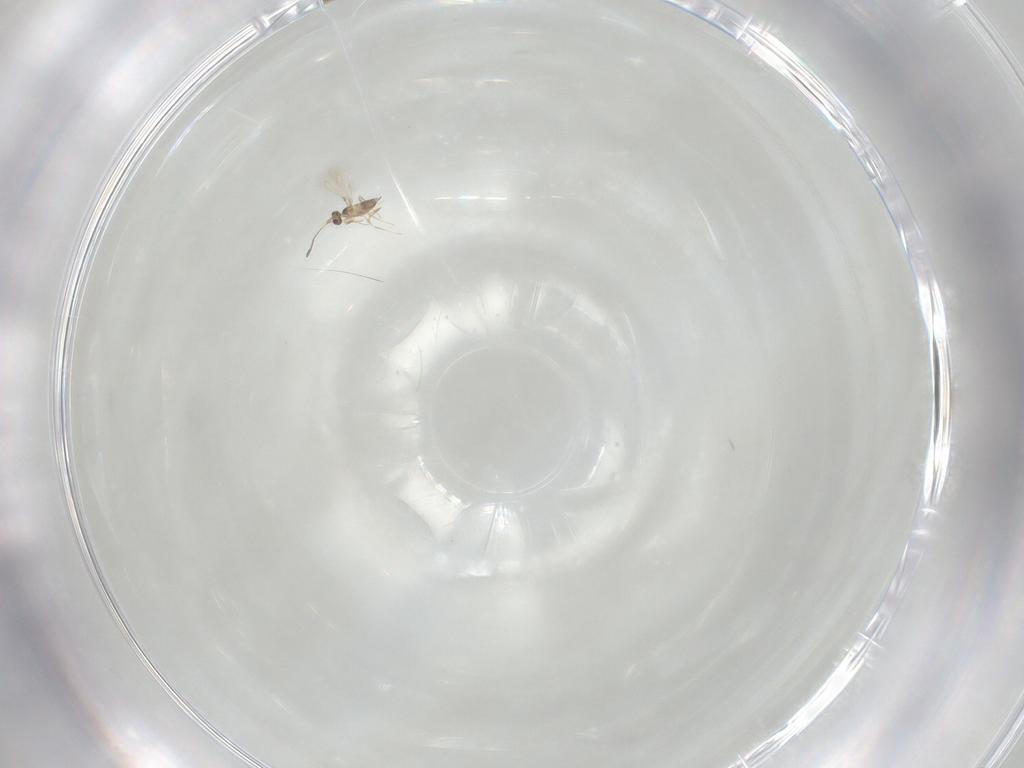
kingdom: Animalia
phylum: Arthropoda
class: Insecta
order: Hymenoptera
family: Mymaridae
